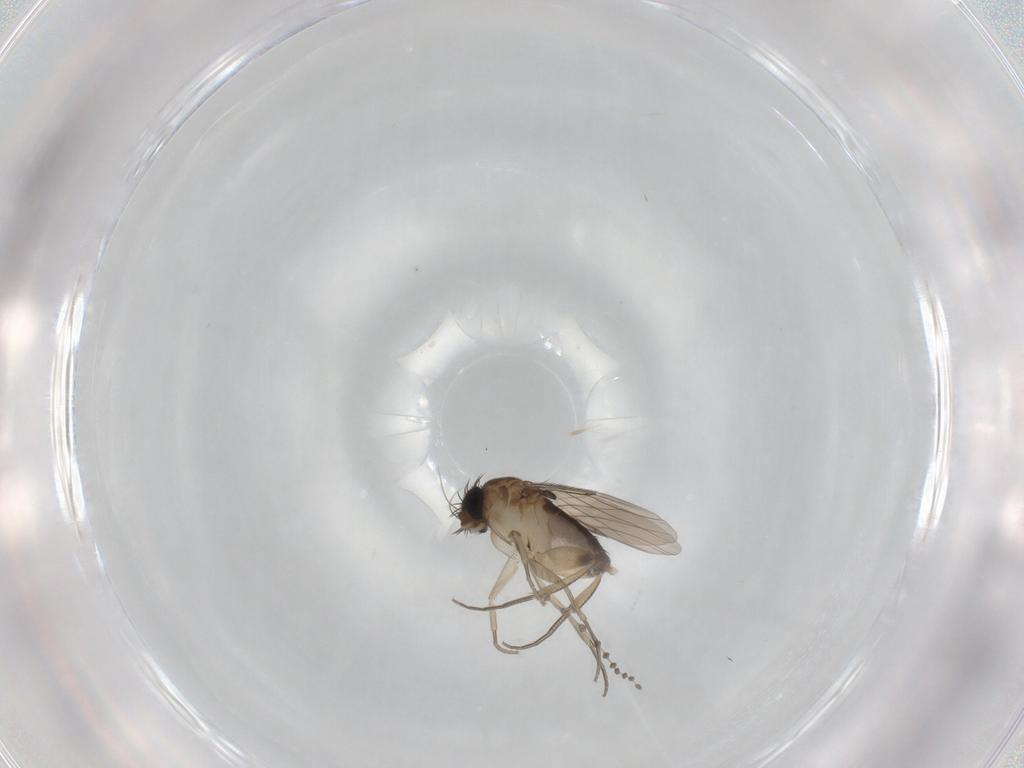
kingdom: Animalia
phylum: Arthropoda
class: Insecta
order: Diptera
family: Phoridae
